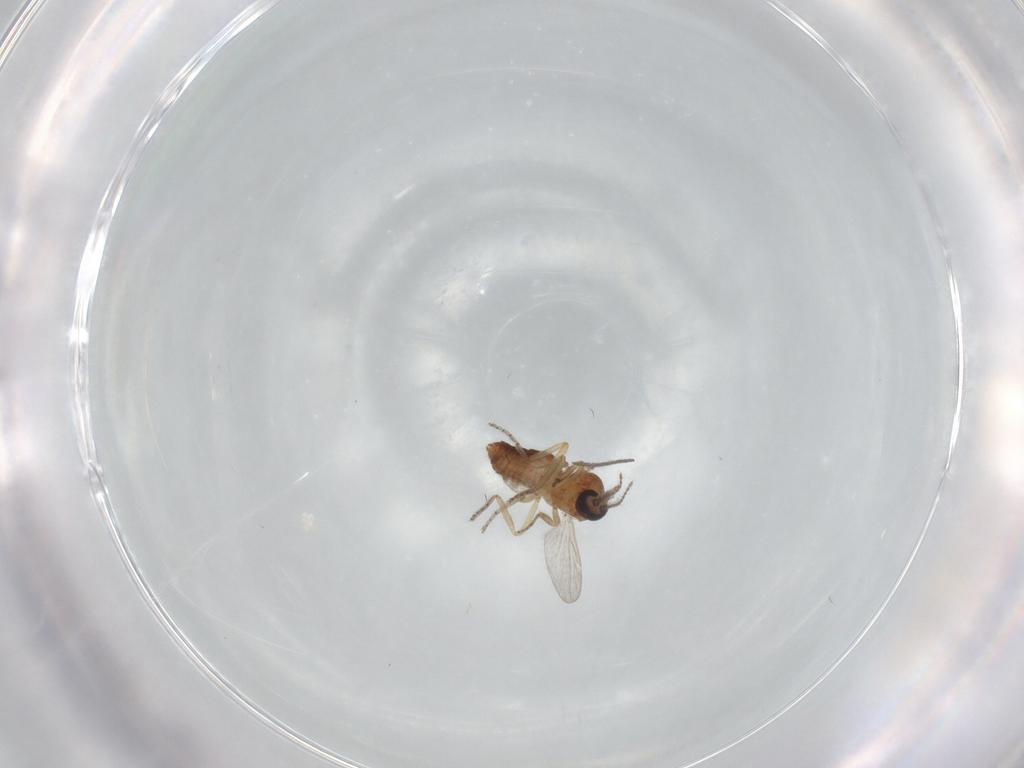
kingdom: Animalia
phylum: Arthropoda
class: Insecta
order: Diptera
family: Ceratopogonidae
